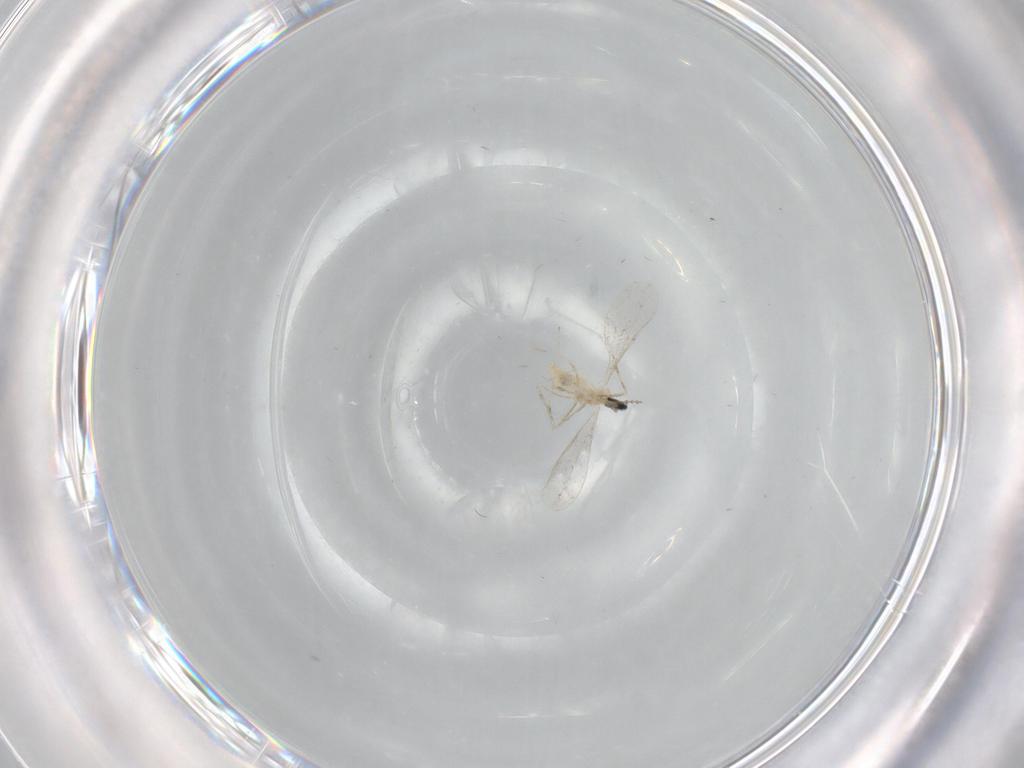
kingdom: Animalia
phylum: Arthropoda
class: Insecta
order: Diptera
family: Cecidomyiidae
